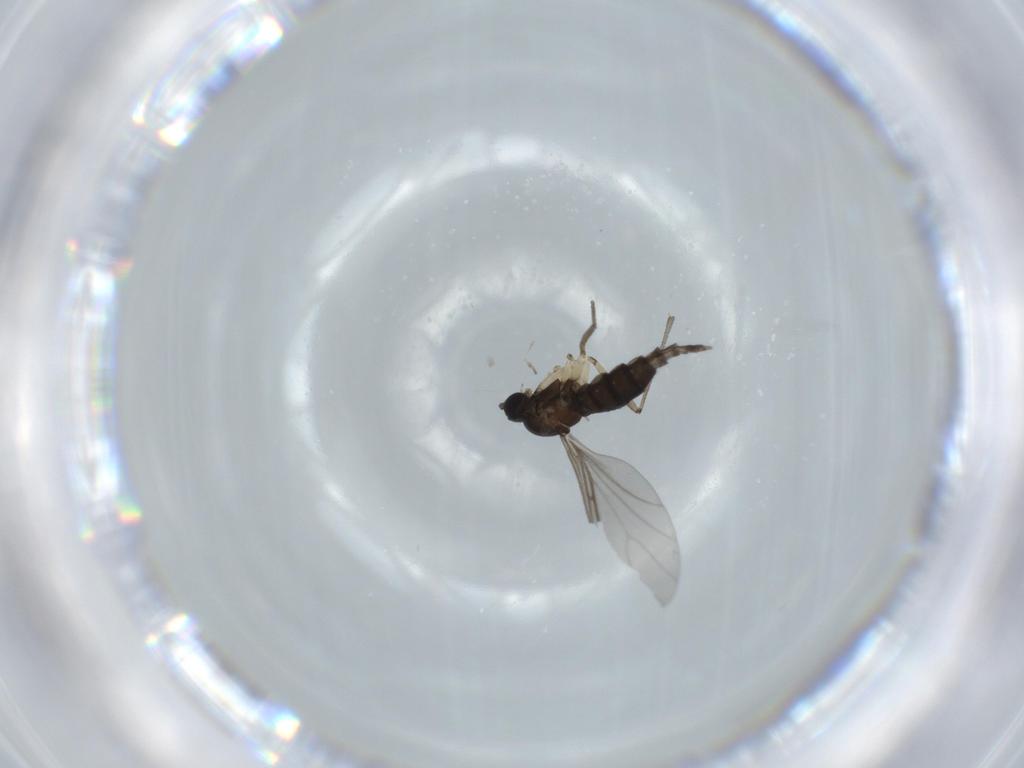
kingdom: Animalia
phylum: Arthropoda
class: Insecta
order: Diptera
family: Sciaridae
